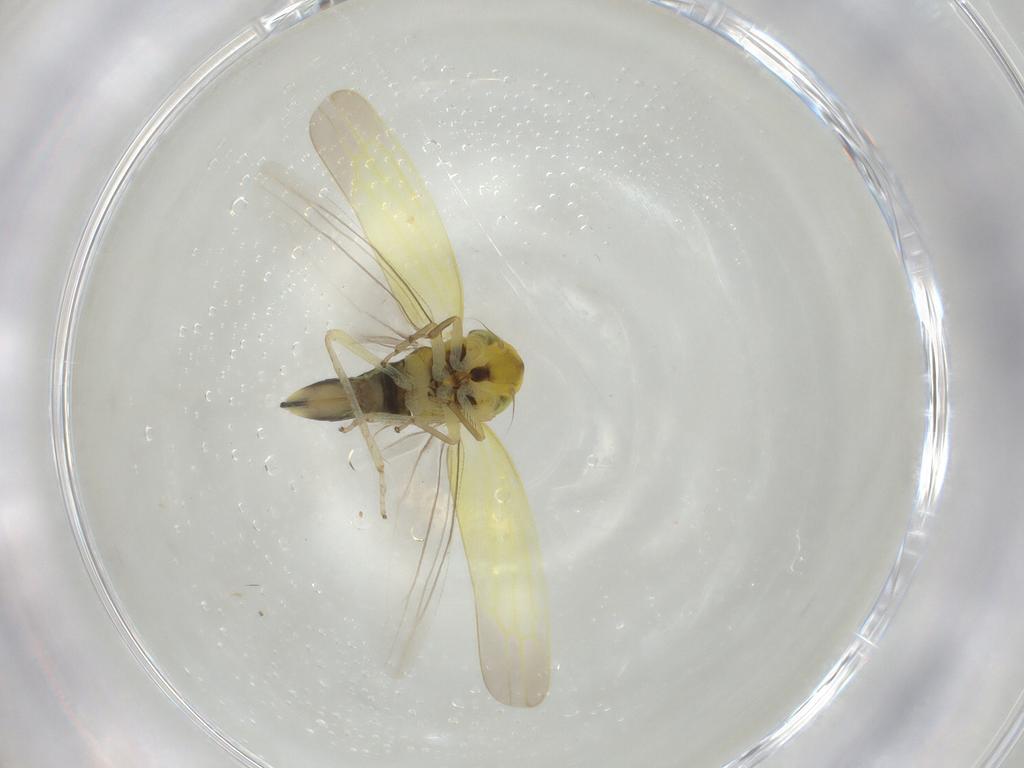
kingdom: Animalia
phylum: Arthropoda
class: Insecta
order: Hemiptera
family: Cicadellidae
